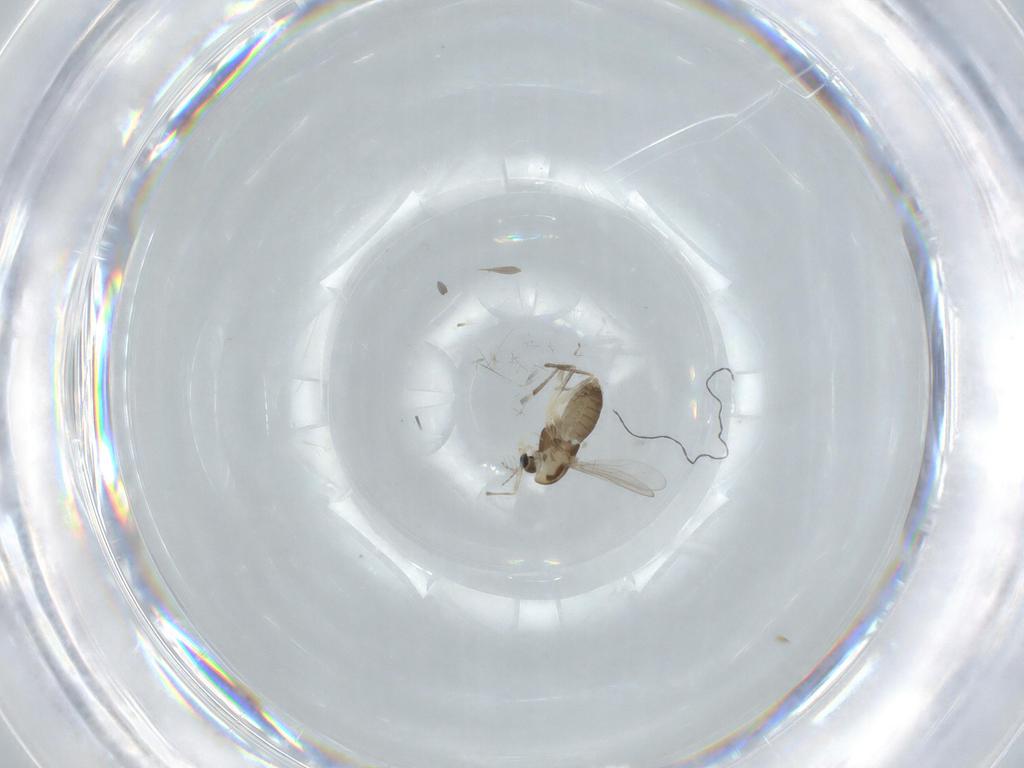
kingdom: Animalia
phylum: Arthropoda
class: Insecta
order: Diptera
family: Chironomidae
